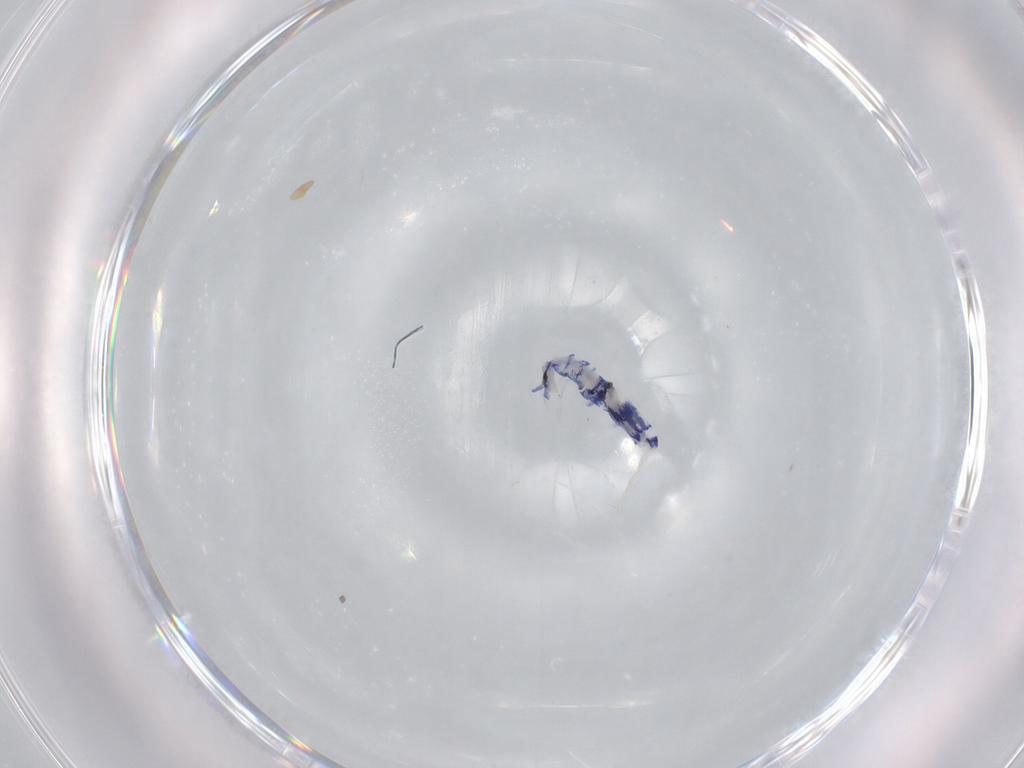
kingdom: Animalia
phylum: Arthropoda
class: Collembola
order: Entomobryomorpha
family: Entomobryidae
